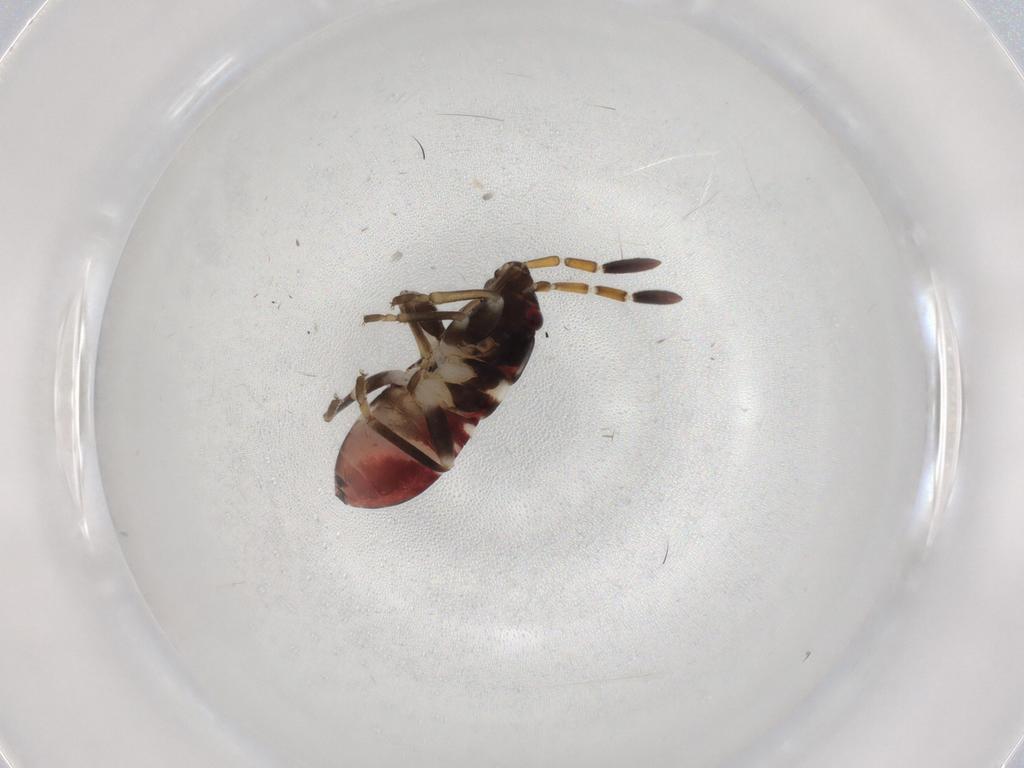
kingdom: Animalia
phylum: Arthropoda
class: Insecta
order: Hemiptera
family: Rhyparochromidae
